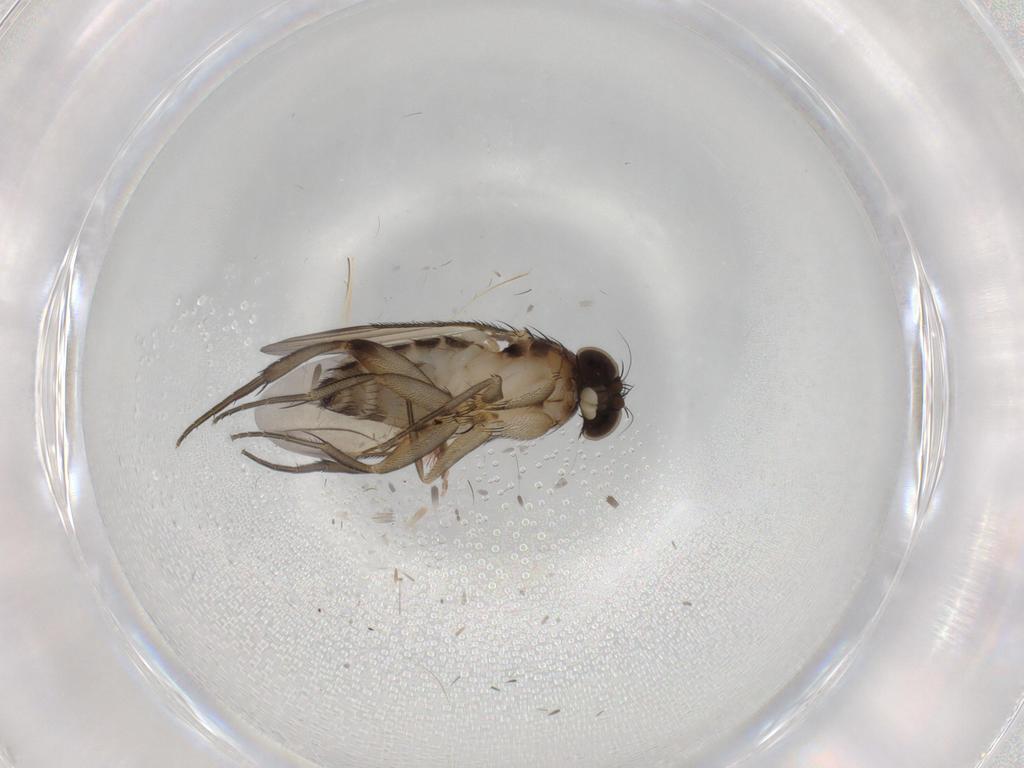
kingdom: Animalia
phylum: Arthropoda
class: Insecta
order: Diptera
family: Phoridae
